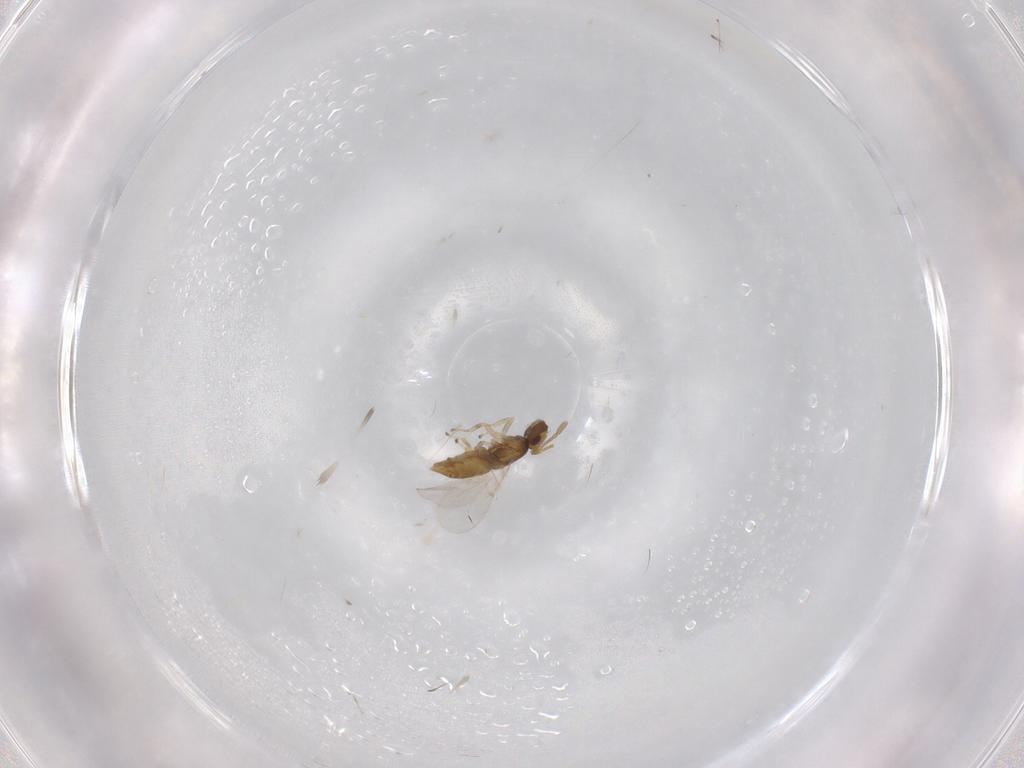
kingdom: Animalia
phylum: Arthropoda
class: Insecta
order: Hymenoptera
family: Encyrtidae
